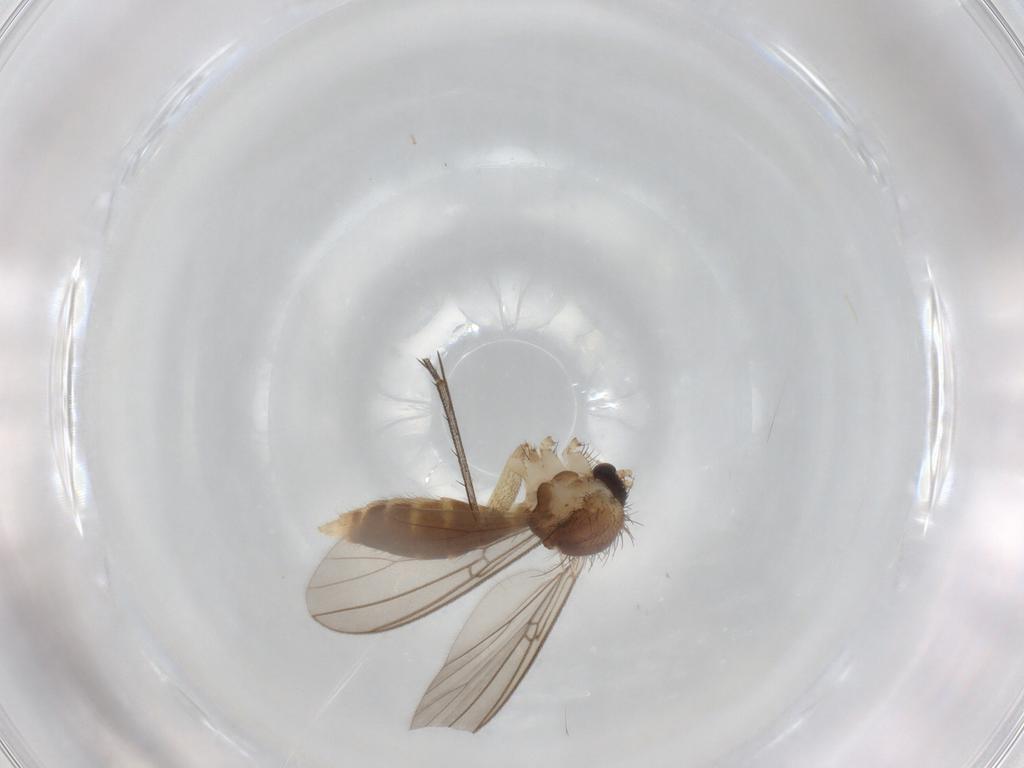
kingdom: Animalia
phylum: Arthropoda
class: Insecta
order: Diptera
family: Mycetophilidae
